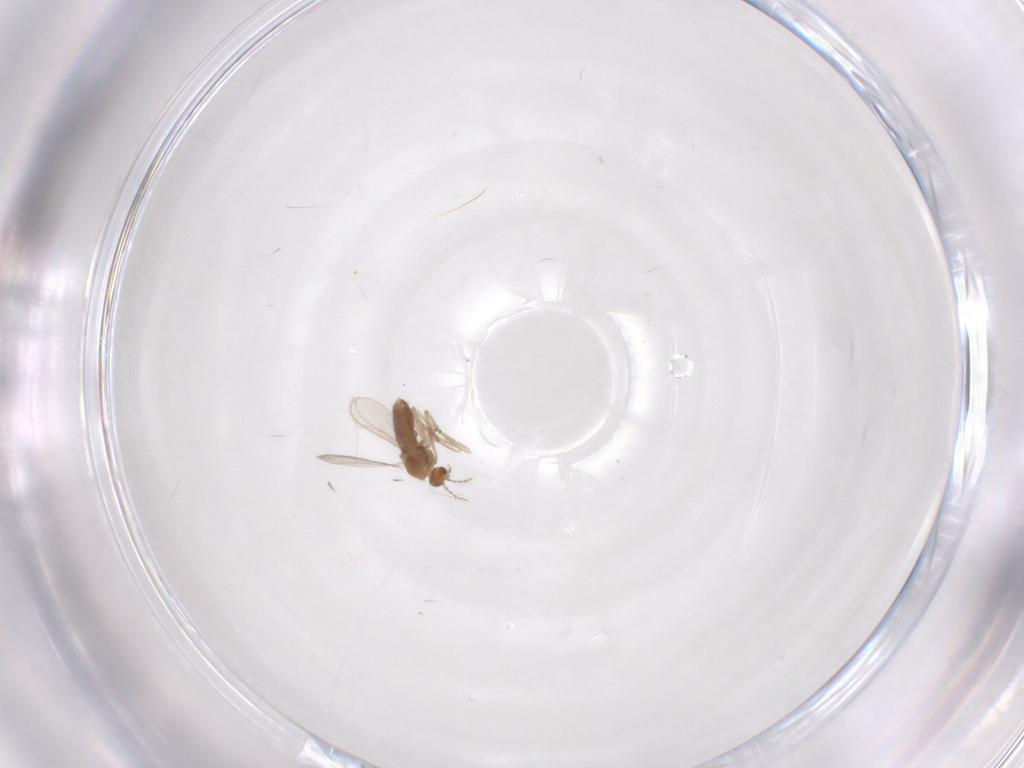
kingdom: Animalia
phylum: Arthropoda
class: Insecta
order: Diptera
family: Chironomidae
